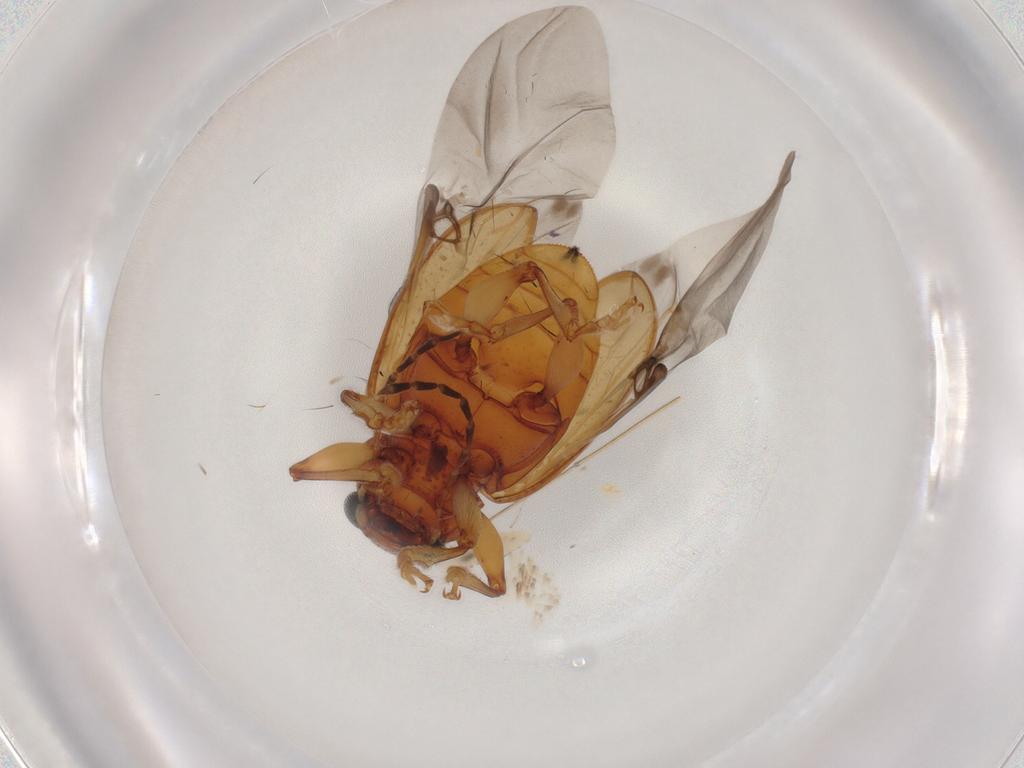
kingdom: Animalia
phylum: Arthropoda
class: Insecta
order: Coleoptera
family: Chrysomelidae
